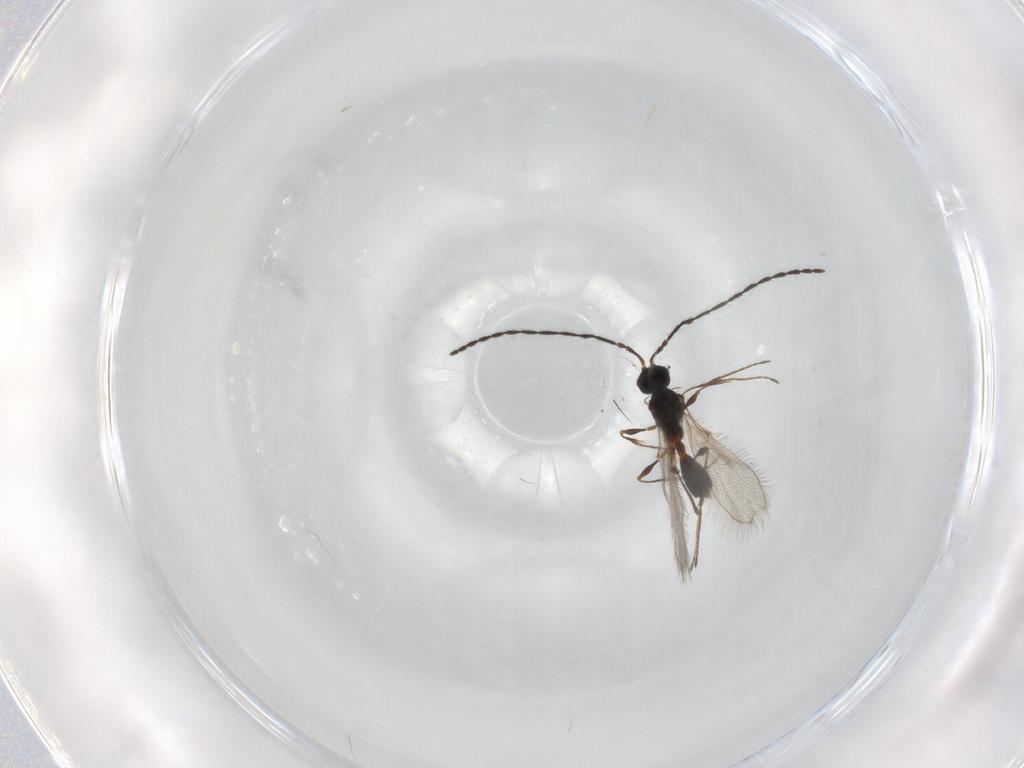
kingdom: Animalia
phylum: Arthropoda
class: Insecta
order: Hymenoptera
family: Diapriidae
